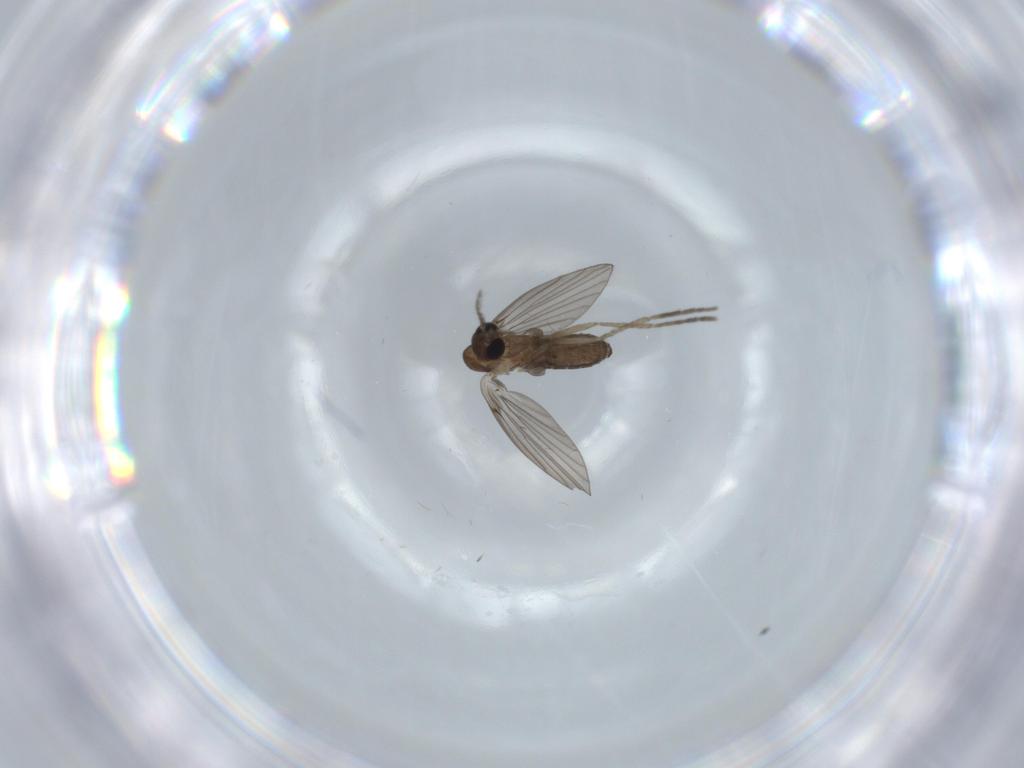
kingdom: Animalia
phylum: Arthropoda
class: Insecta
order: Diptera
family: Psychodidae
